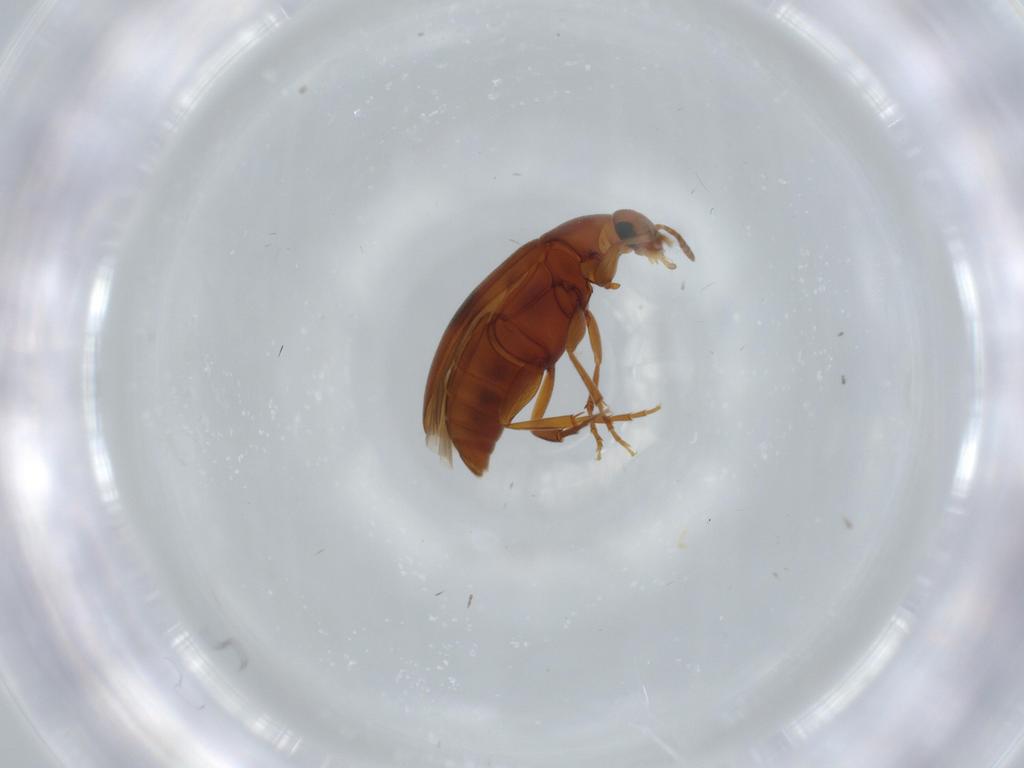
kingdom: Animalia
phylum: Arthropoda
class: Insecta
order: Coleoptera
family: Scraptiidae
